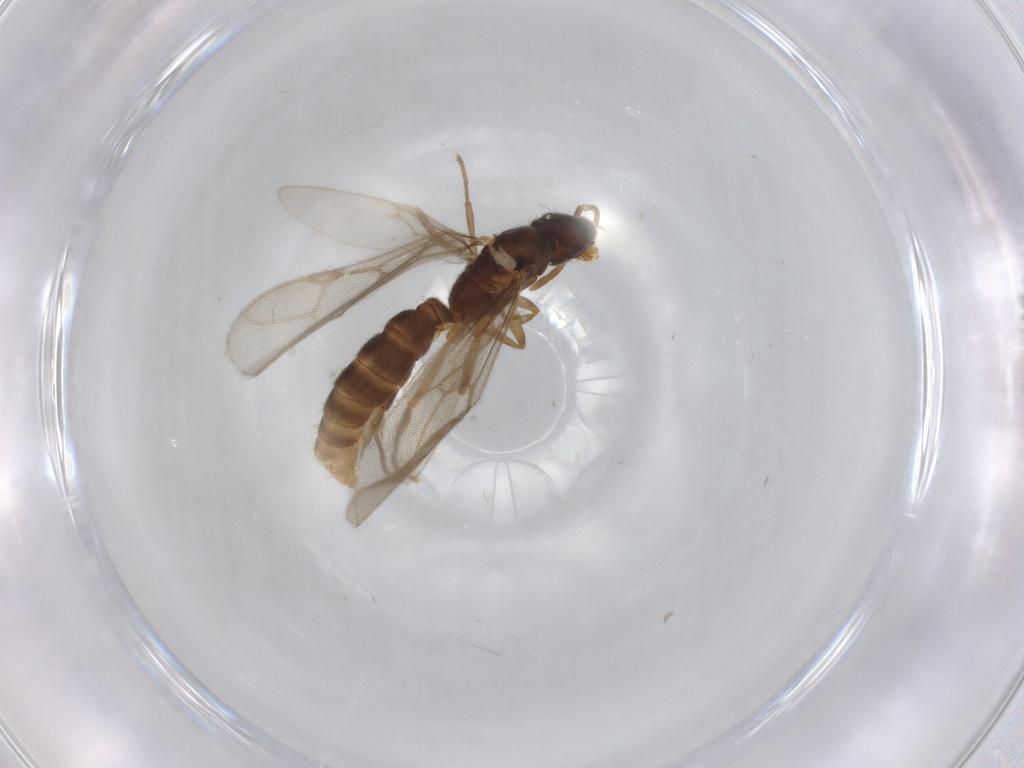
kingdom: Animalia
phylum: Arthropoda
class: Insecta
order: Hymenoptera
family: Formicidae
